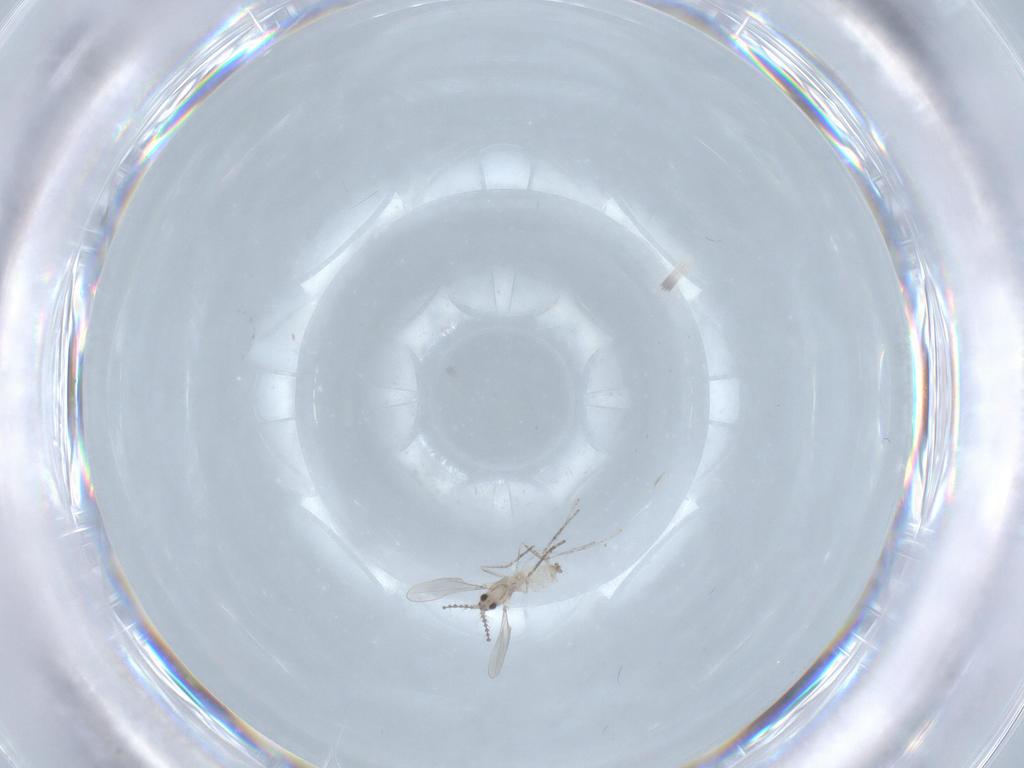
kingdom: Animalia
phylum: Arthropoda
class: Insecta
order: Diptera
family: Cecidomyiidae
